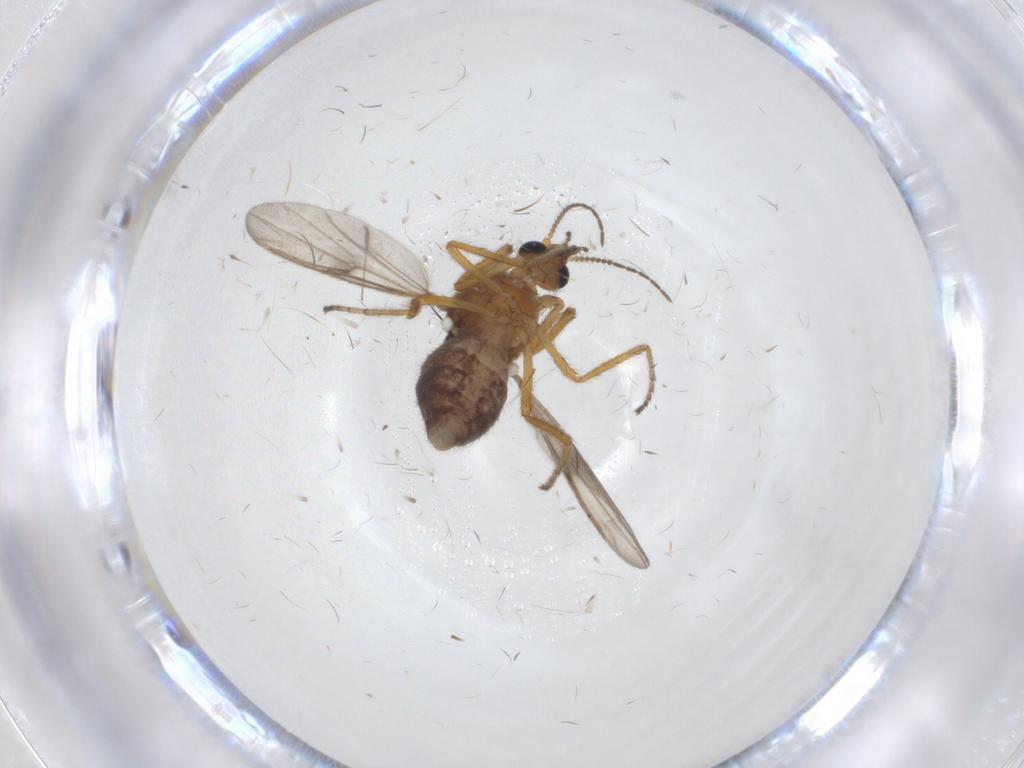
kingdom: Animalia
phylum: Arthropoda
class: Insecta
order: Diptera
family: Ceratopogonidae
